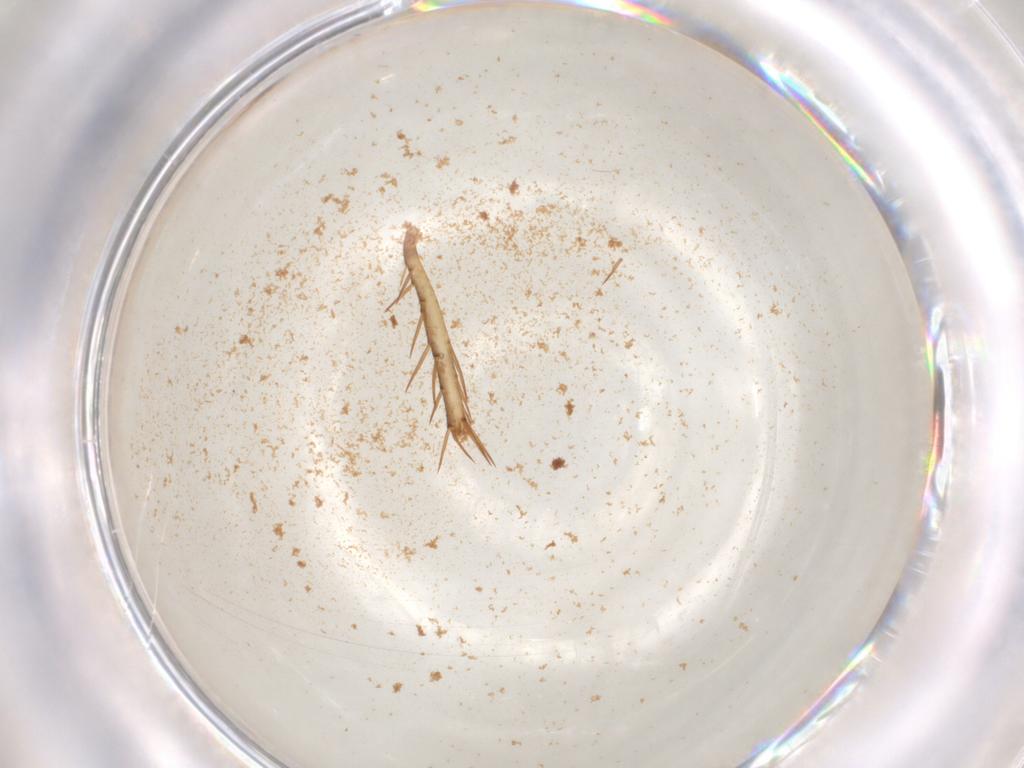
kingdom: Animalia
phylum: Arthropoda
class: Insecta
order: Blattodea
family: Ectobiidae
